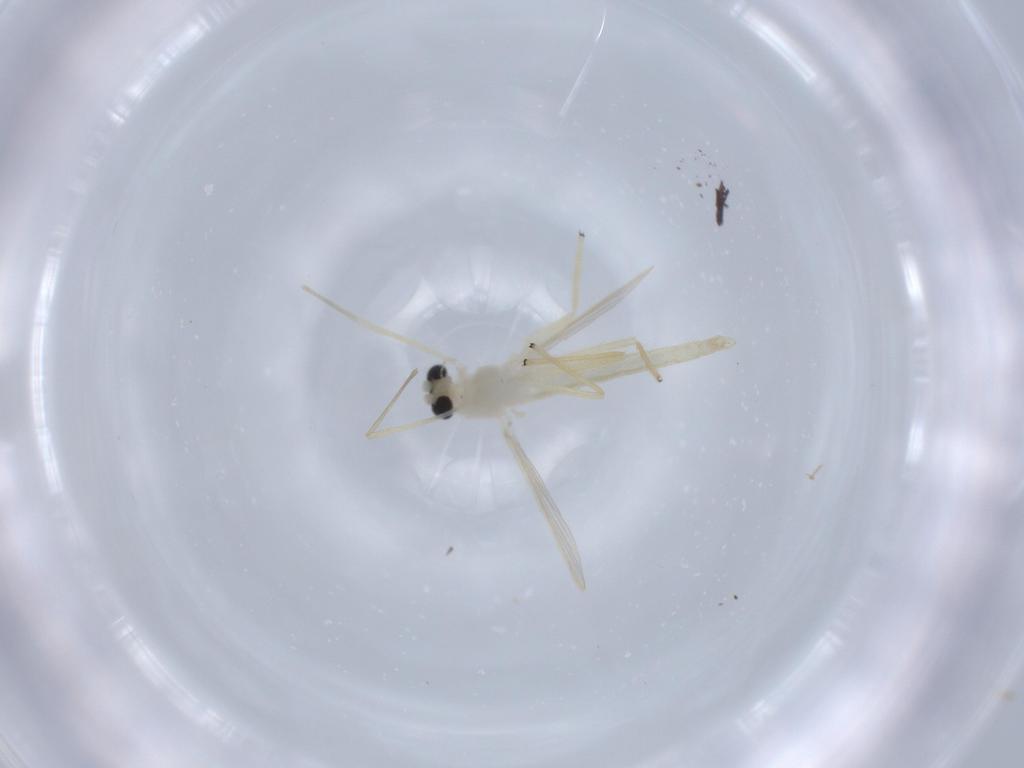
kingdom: Animalia
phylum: Arthropoda
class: Insecta
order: Diptera
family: Chironomidae
